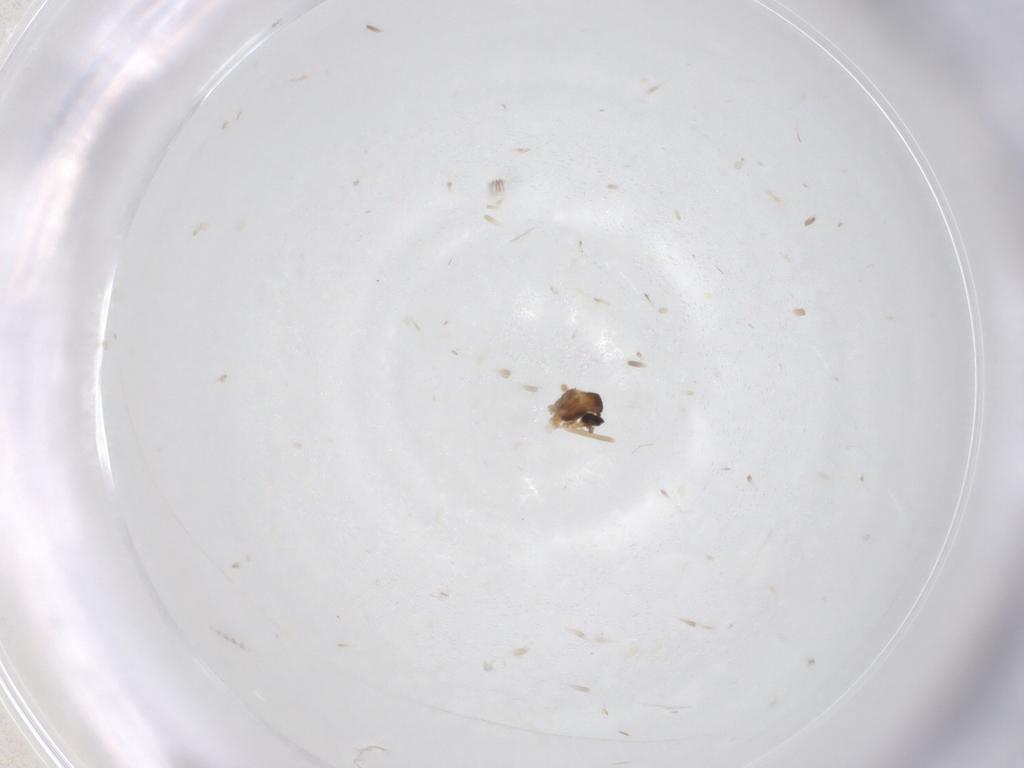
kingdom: Animalia
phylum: Arthropoda
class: Insecta
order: Diptera
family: Cecidomyiidae
